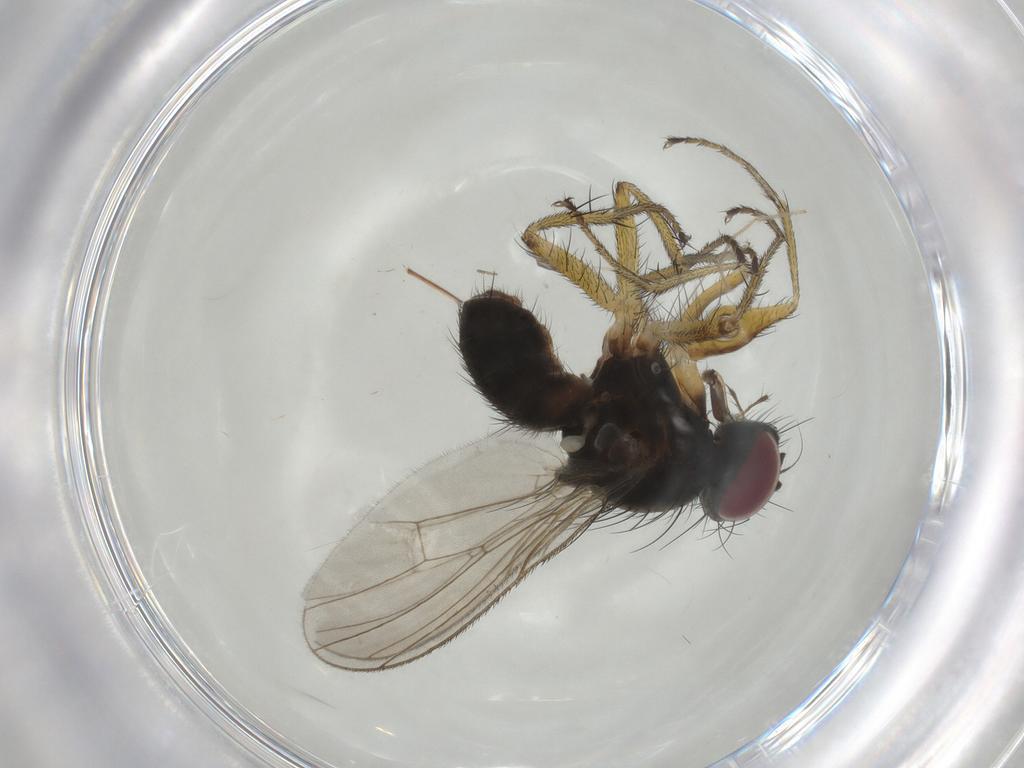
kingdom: Animalia
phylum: Arthropoda
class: Insecta
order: Diptera
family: Muscidae
